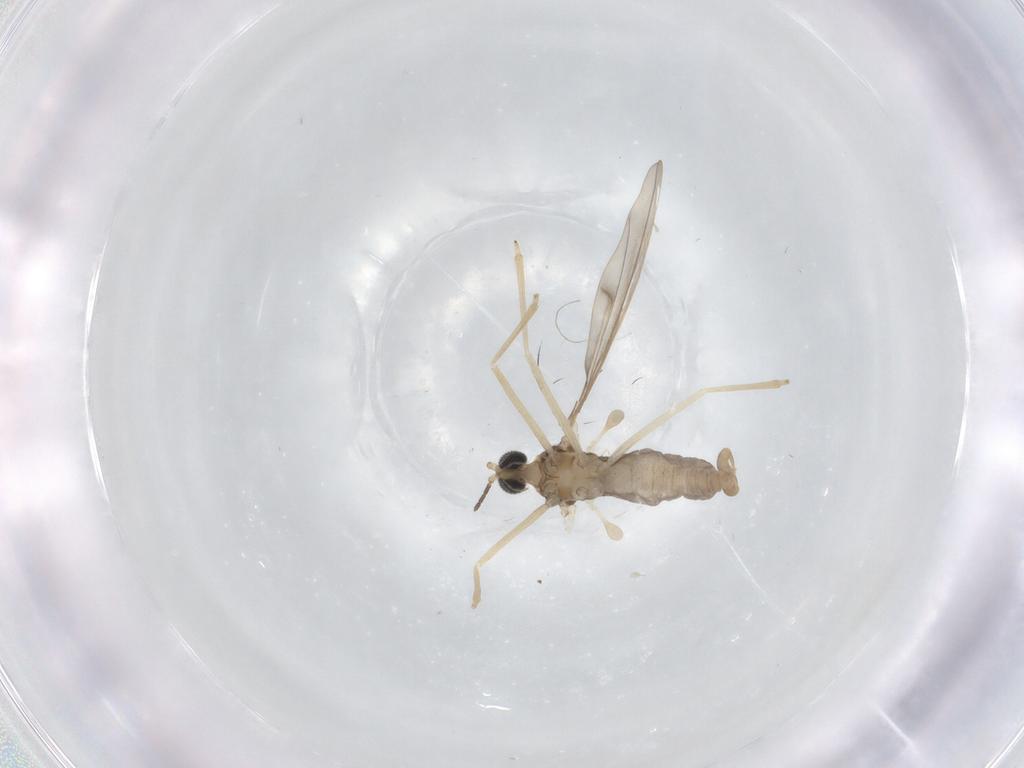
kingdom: Animalia
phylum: Arthropoda
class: Insecta
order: Diptera
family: Cecidomyiidae
